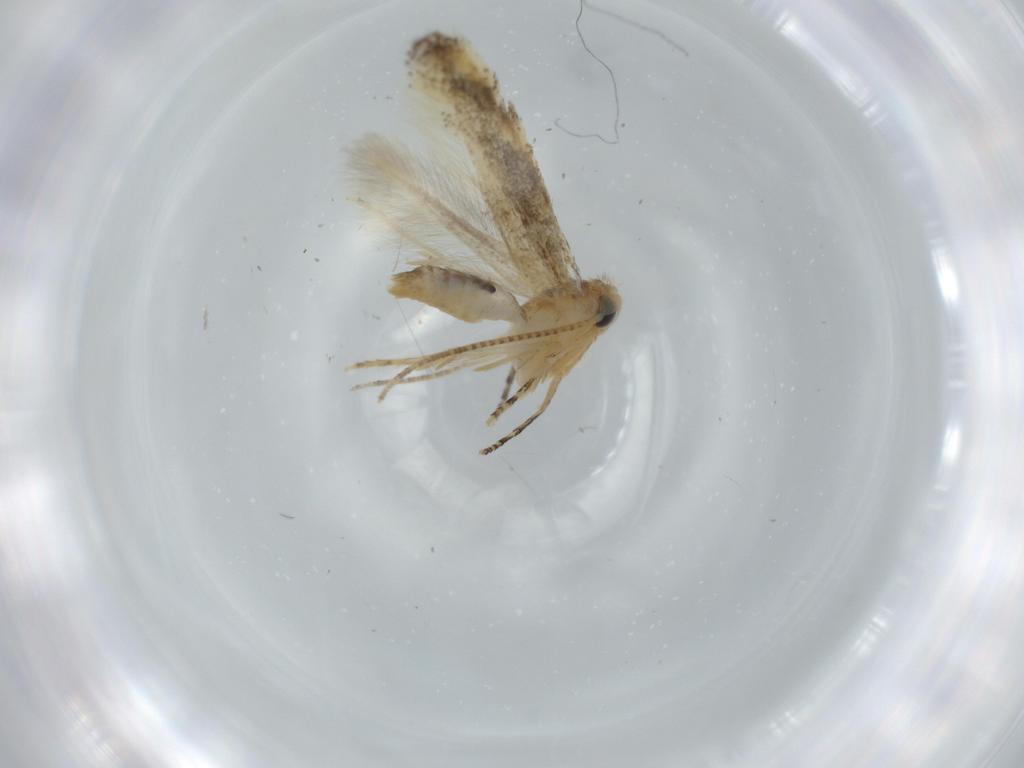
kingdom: Animalia
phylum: Arthropoda
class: Insecta
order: Lepidoptera
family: Bucculatricidae
